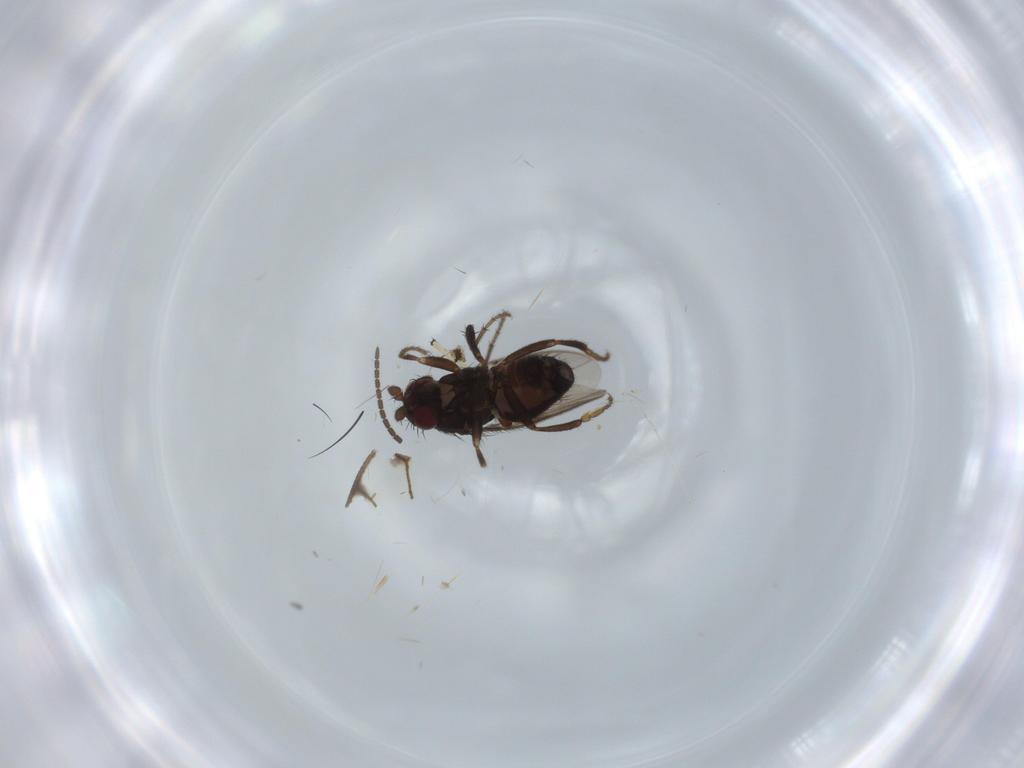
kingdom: Animalia
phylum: Arthropoda
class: Insecta
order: Diptera
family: Sphaeroceridae
